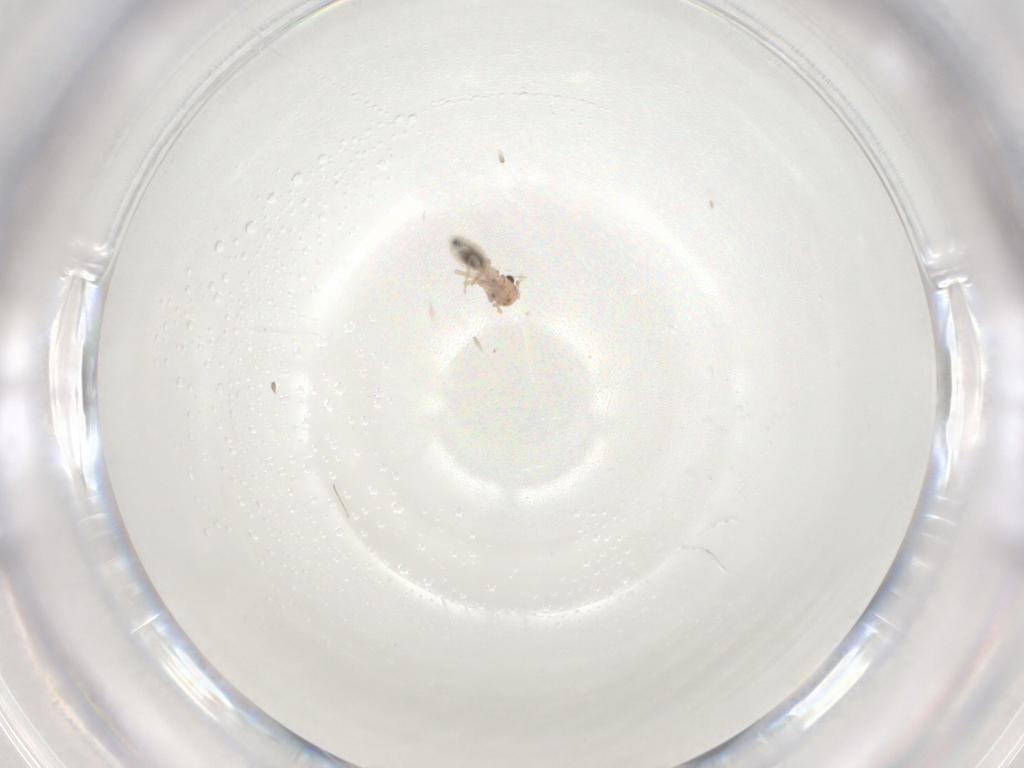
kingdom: Animalia
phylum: Arthropoda
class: Insecta
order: Psocodea
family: Trogiidae
